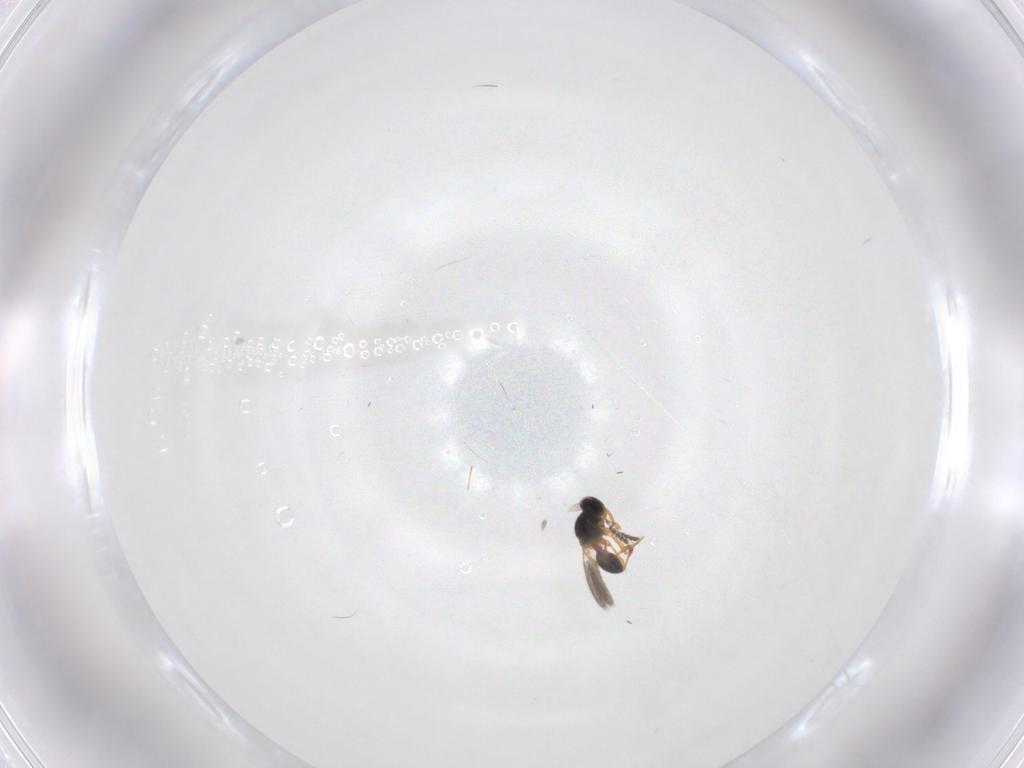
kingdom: Animalia
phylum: Arthropoda
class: Insecta
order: Hymenoptera
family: Platygastridae
